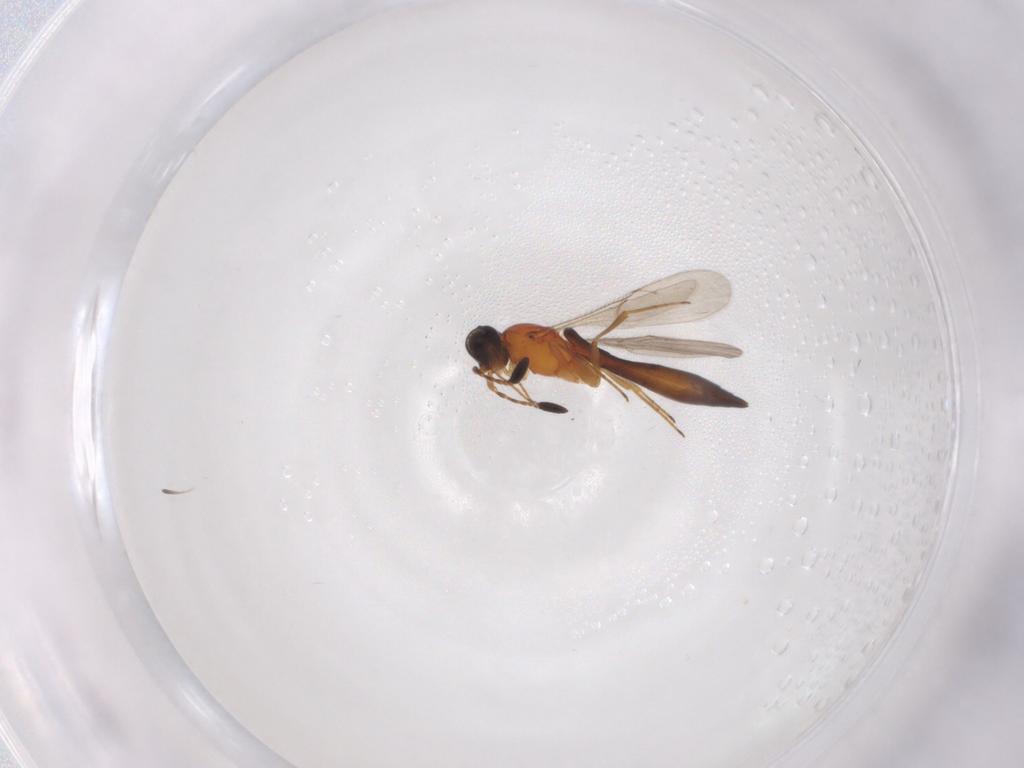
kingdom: Animalia
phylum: Arthropoda
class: Insecta
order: Hymenoptera
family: Scelionidae
